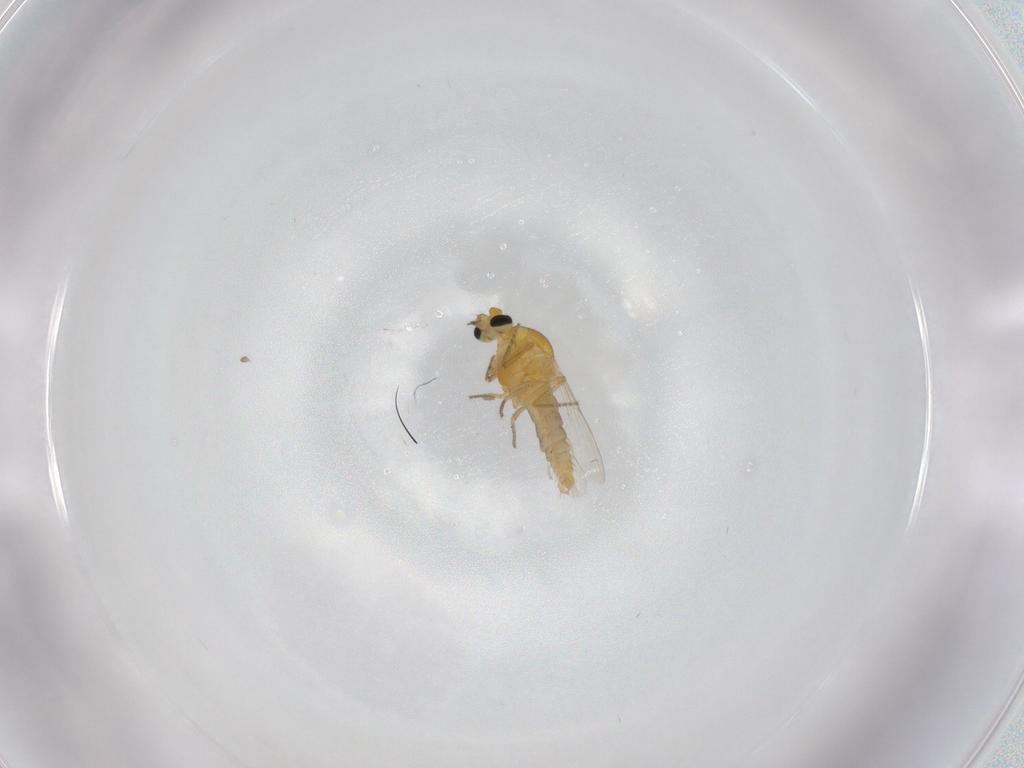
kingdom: Animalia
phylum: Arthropoda
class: Insecta
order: Diptera
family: Ceratopogonidae
